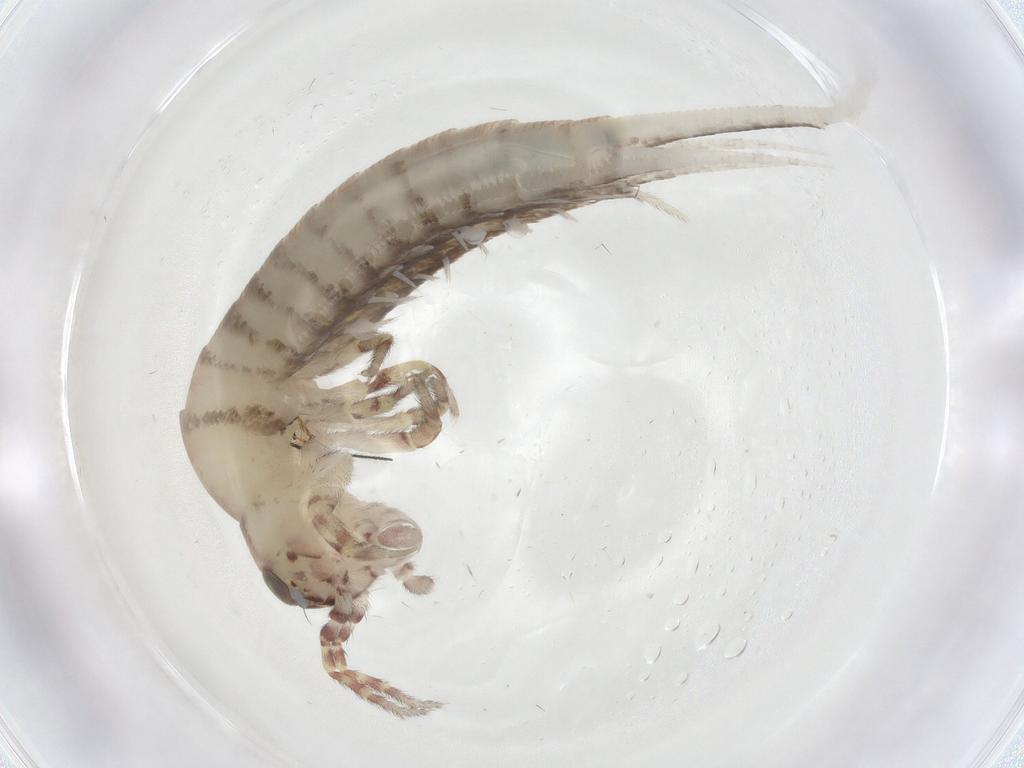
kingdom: Animalia
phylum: Arthropoda
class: Insecta
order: Archaeognatha
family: Meinertellidae
